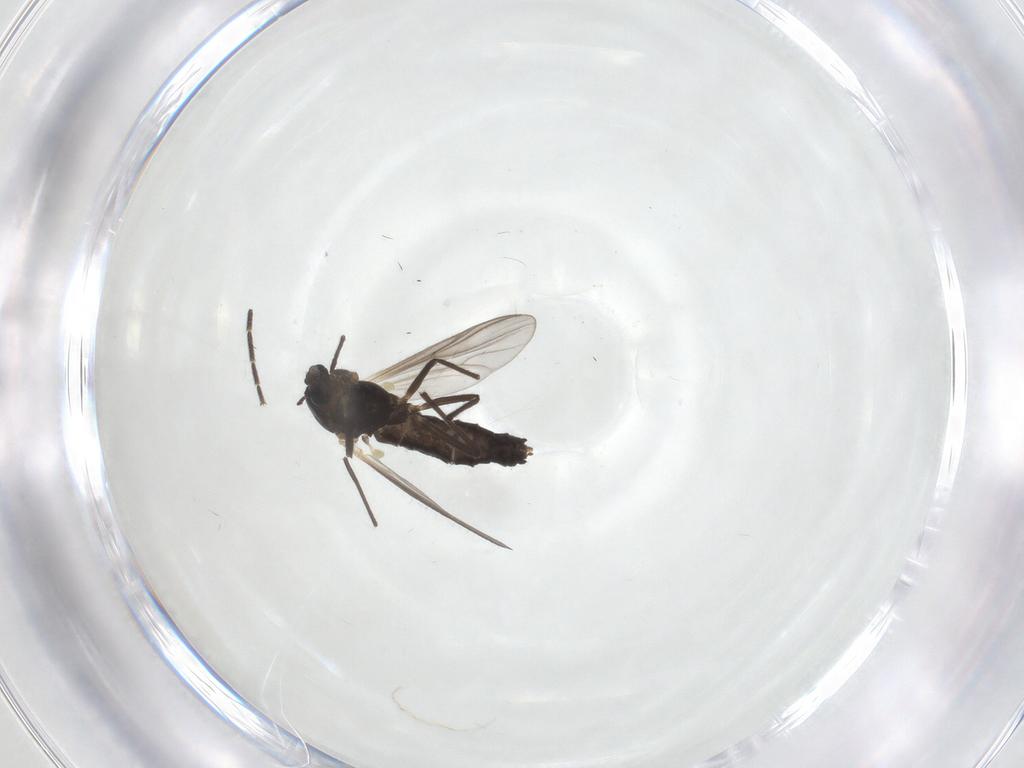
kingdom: Animalia
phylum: Arthropoda
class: Insecta
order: Diptera
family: Chironomidae
